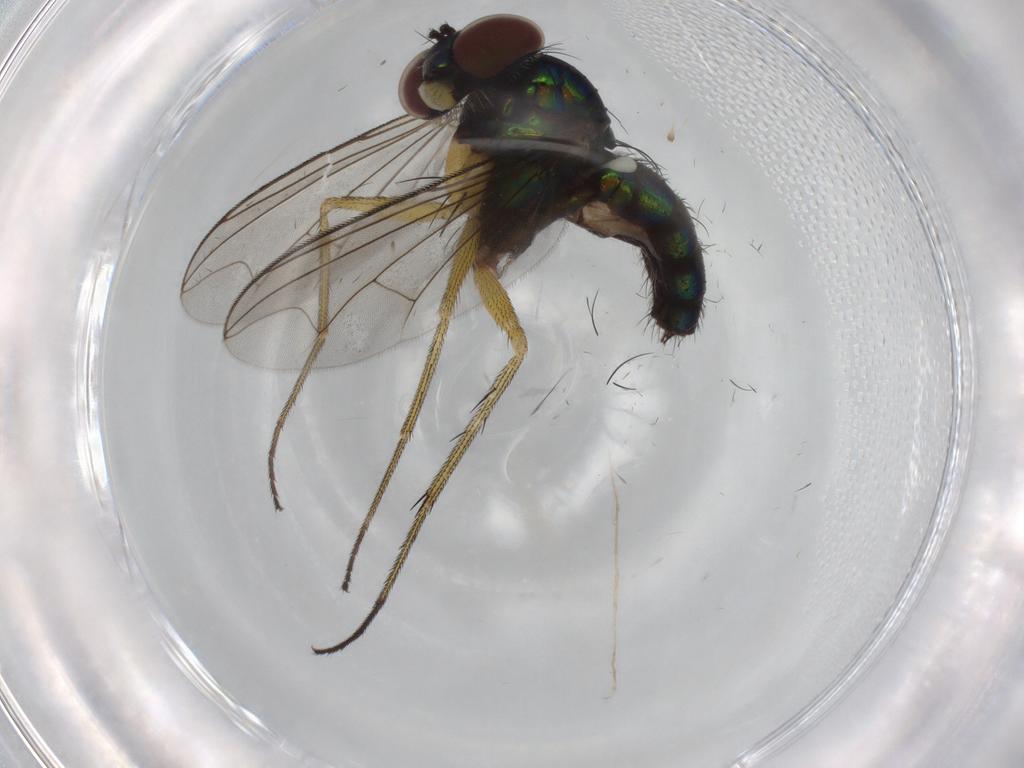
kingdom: Animalia
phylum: Arthropoda
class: Insecta
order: Diptera
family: Dolichopodidae
